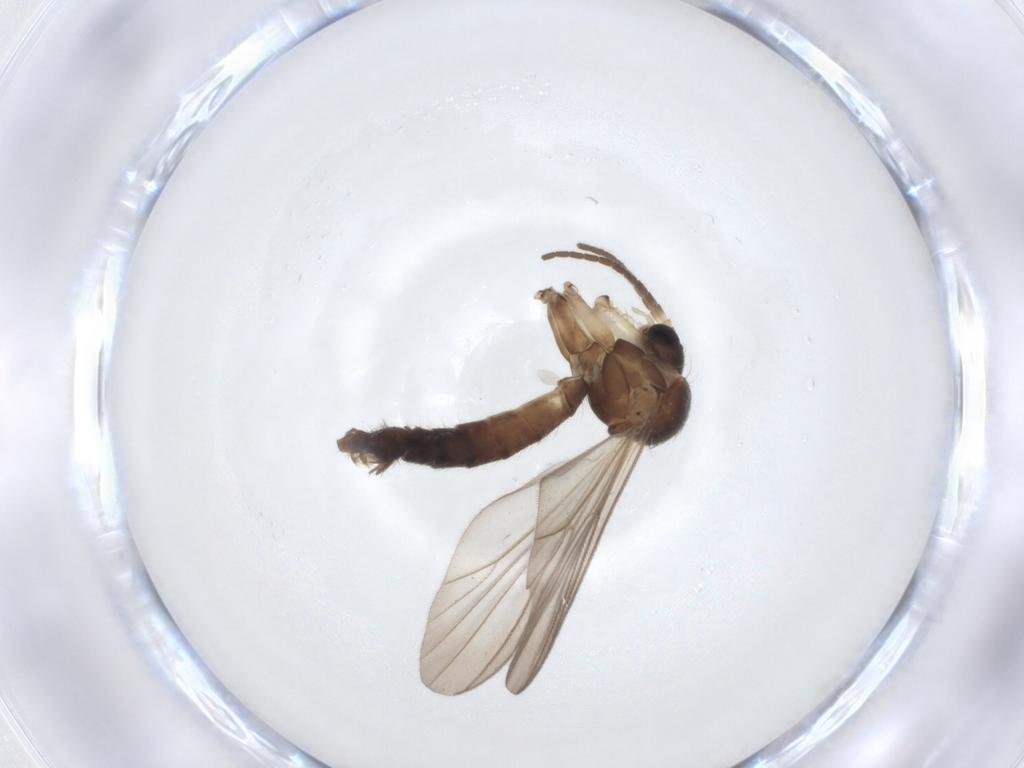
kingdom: Animalia
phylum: Arthropoda
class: Insecta
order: Diptera
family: Mycetophilidae
